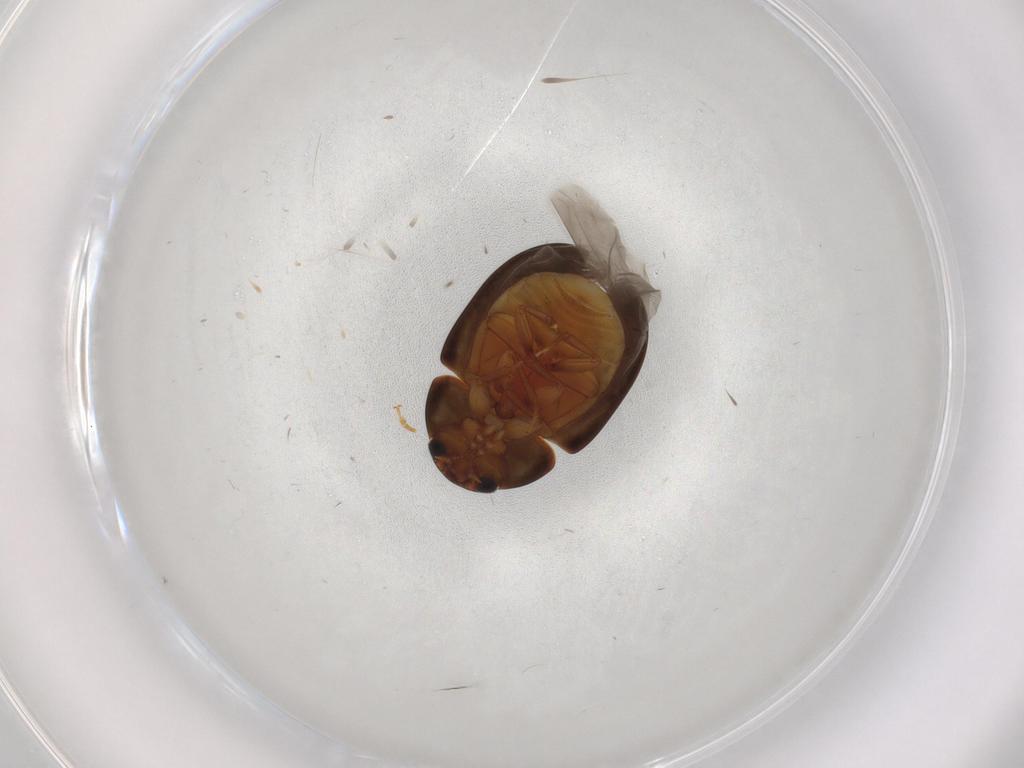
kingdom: Animalia
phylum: Arthropoda
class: Insecta
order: Coleoptera
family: Phalacridae
